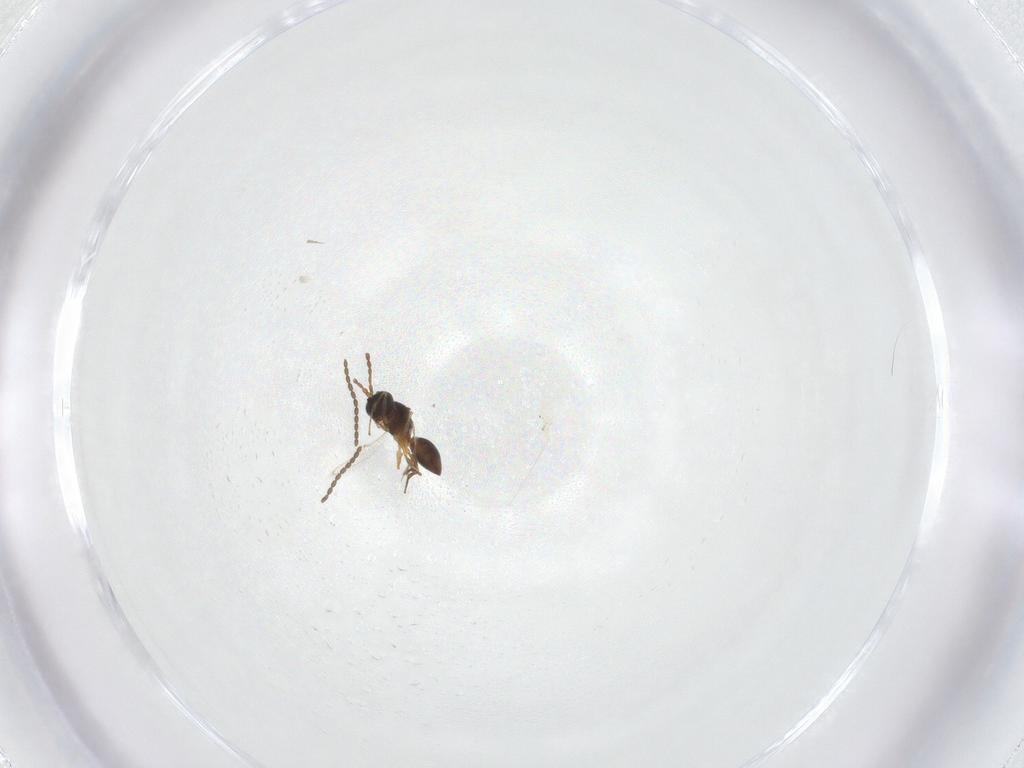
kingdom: Animalia
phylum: Arthropoda
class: Insecta
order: Hymenoptera
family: Figitidae
